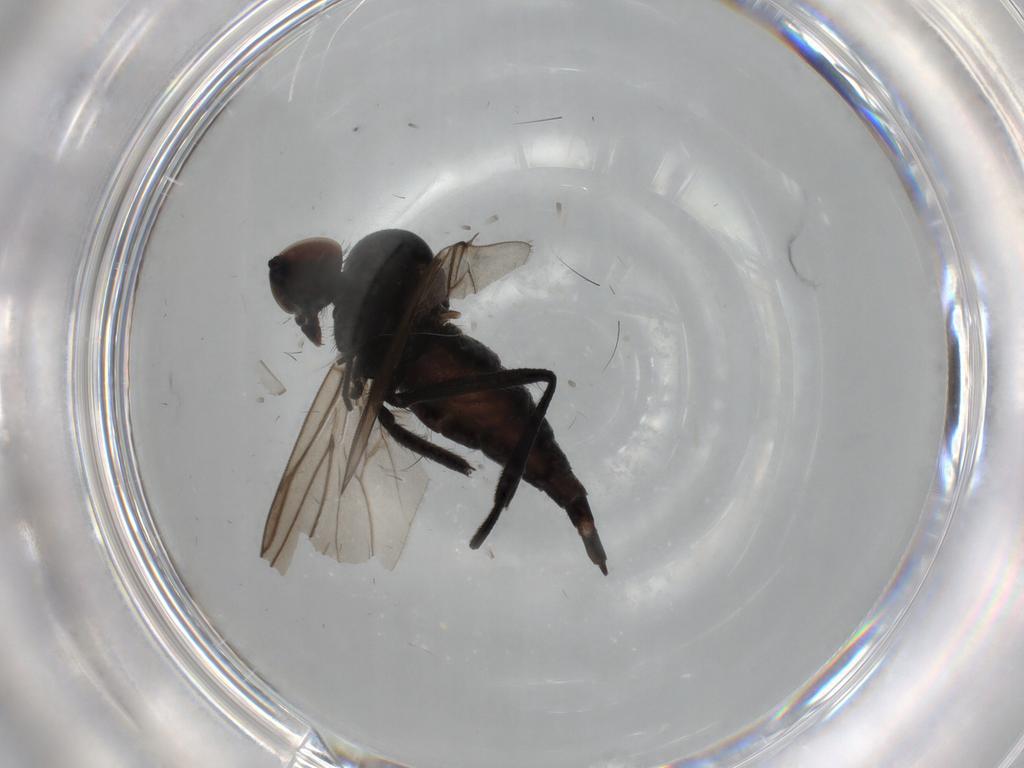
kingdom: Animalia
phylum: Arthropoda
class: Insecta
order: Diptera
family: Hybotidae
